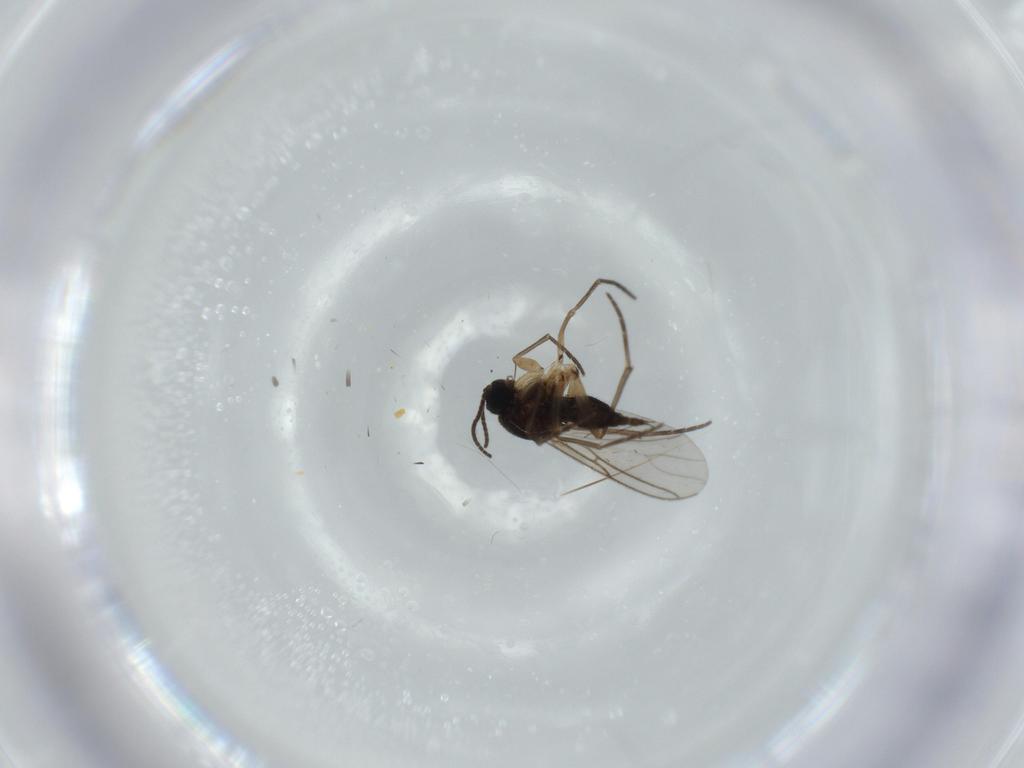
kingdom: Animalia
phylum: Arthropoda
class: Insecta
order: Diptera
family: Sciaridae
